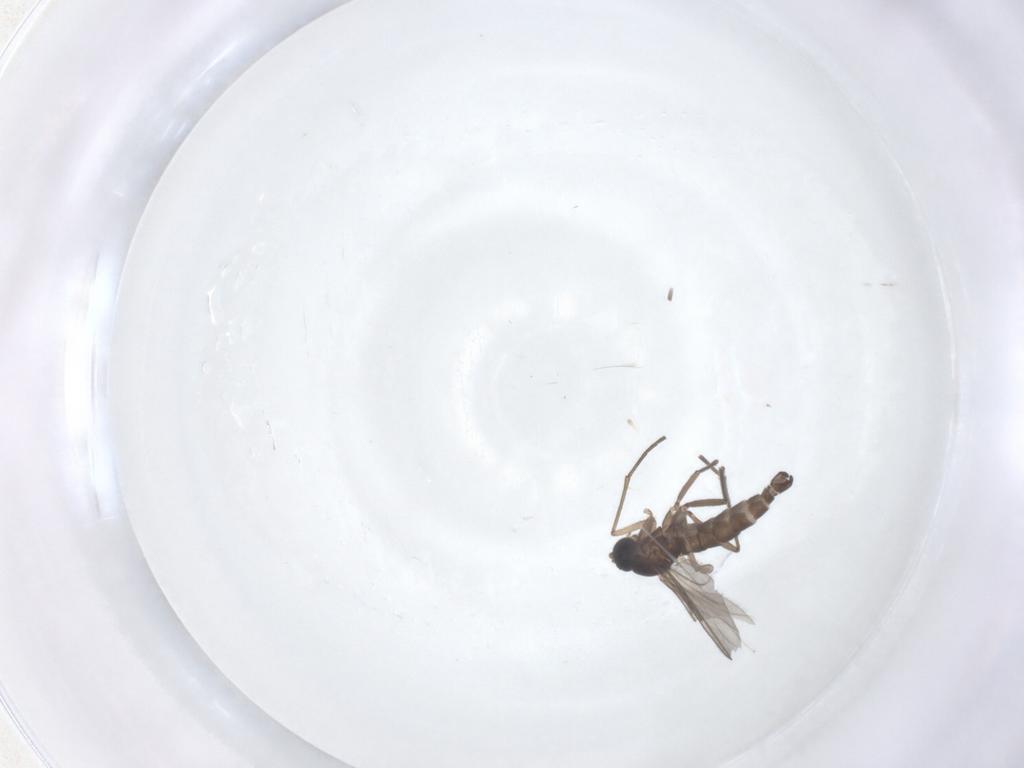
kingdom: Animalia
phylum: Arthropoda
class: Insecta
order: Diptera
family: Sciaridae
